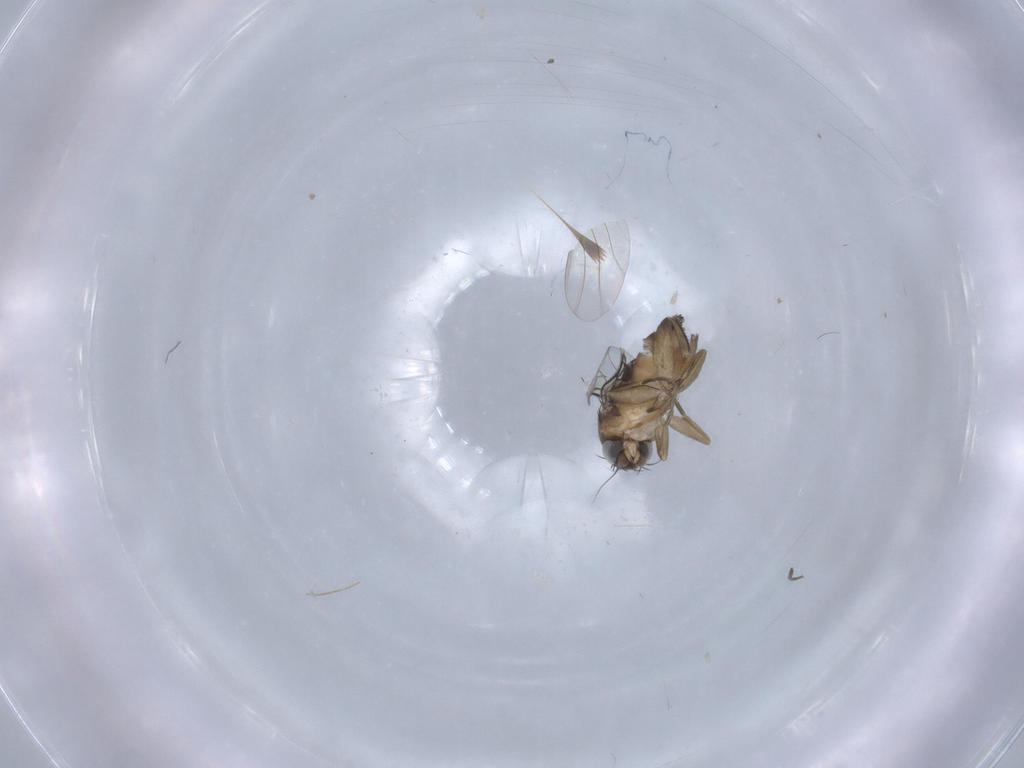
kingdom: Animalia
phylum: Arthropoda
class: Insecta
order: Diptera
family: Phoridae
